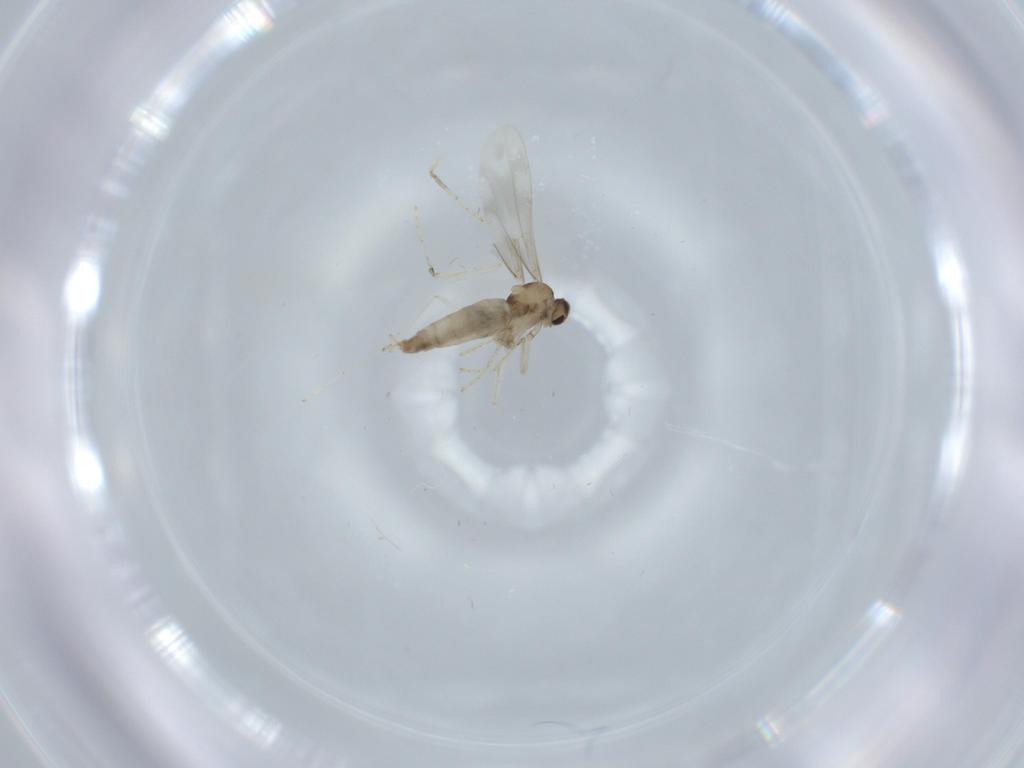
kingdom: Animalia
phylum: Arthropoda
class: Insecta
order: Diptera
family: Cecidomyiidae
